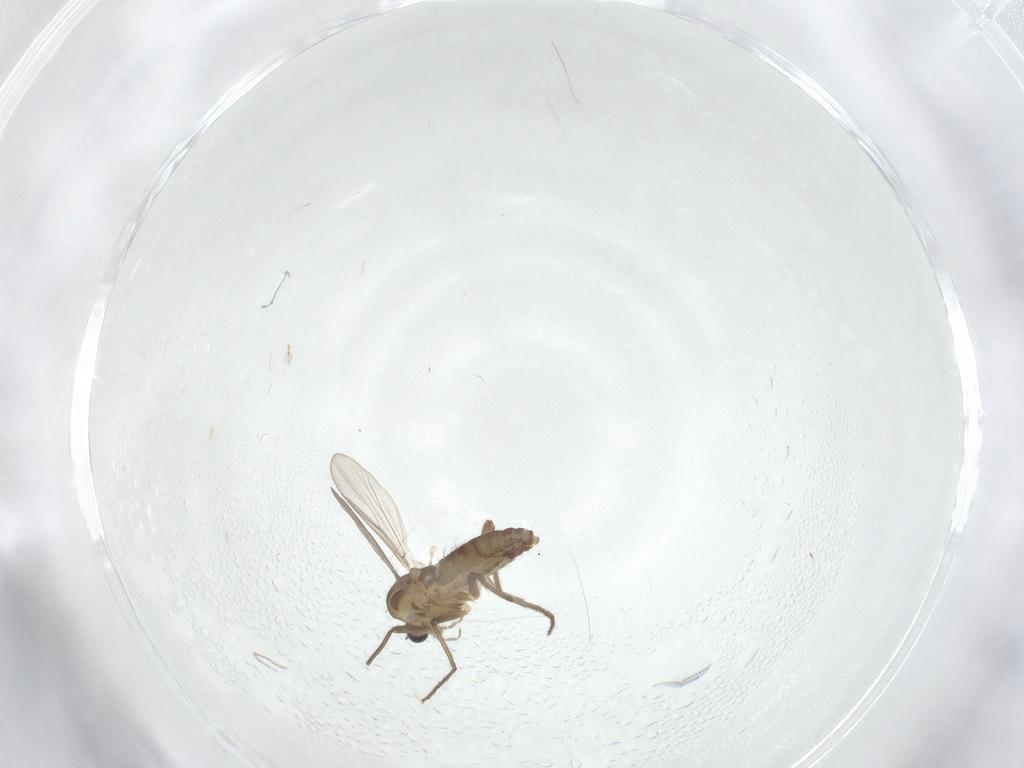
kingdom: Animalia
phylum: Arthropoda
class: Insecta
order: Diptera
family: Chironomidae
